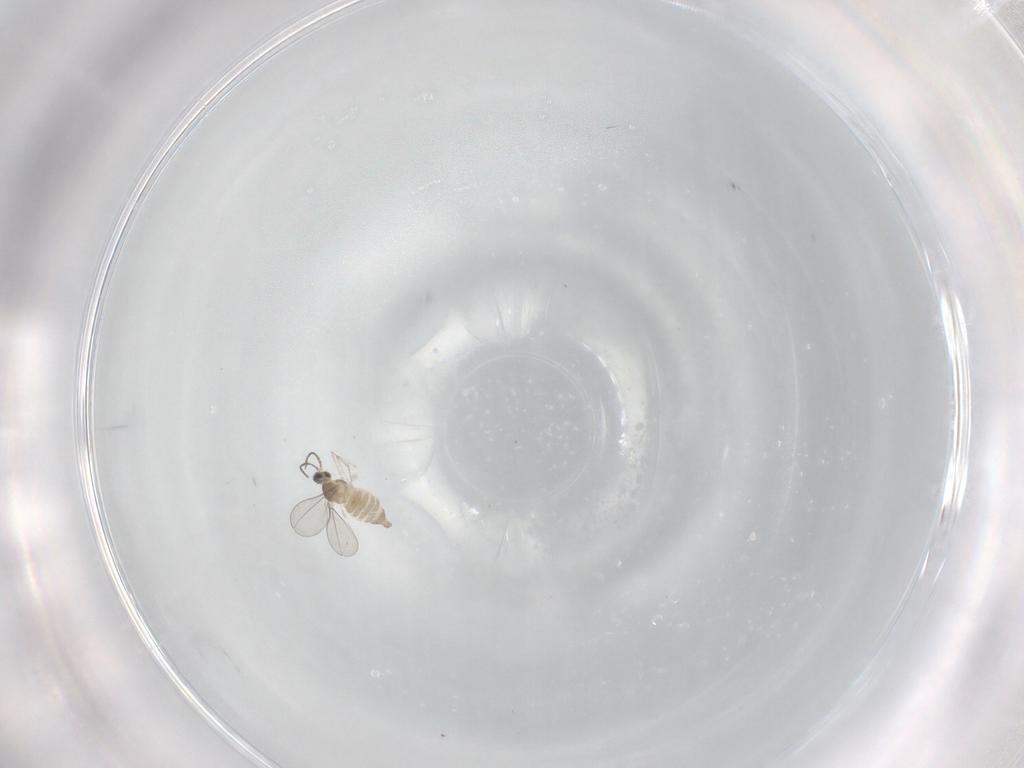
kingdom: Animalia
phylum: Arthropoda
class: Insecta
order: Diptera
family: Cecidomyiidae
